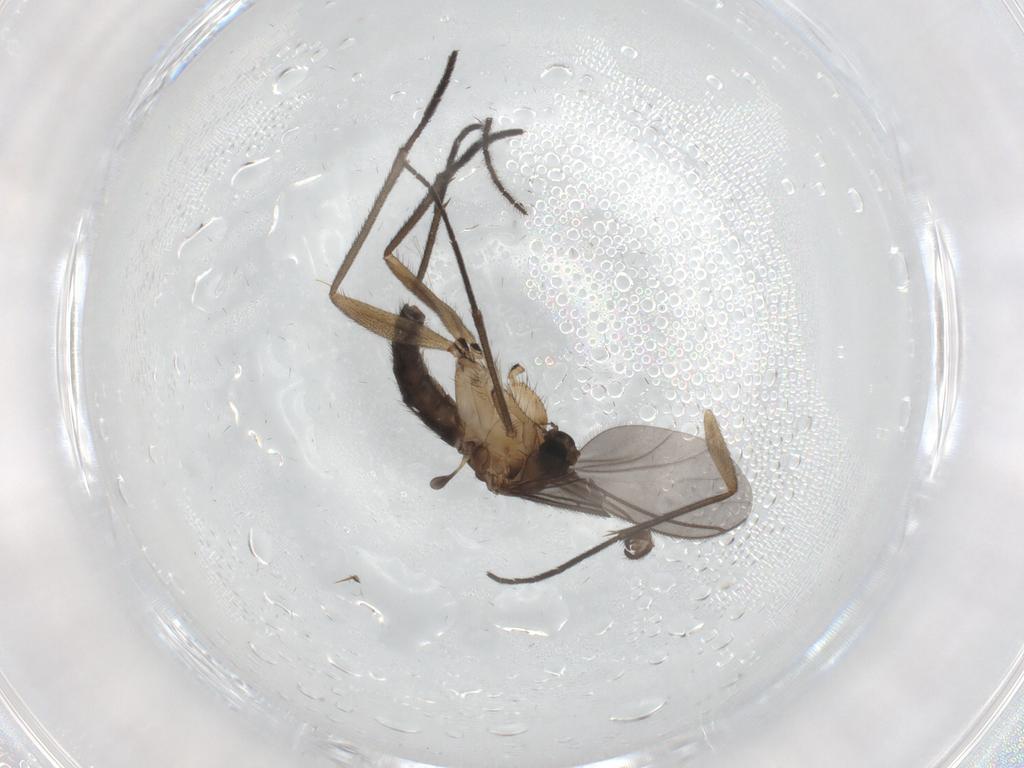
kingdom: Animalia
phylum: Arthropoda
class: Insecta
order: Diptera
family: Sciaridae
